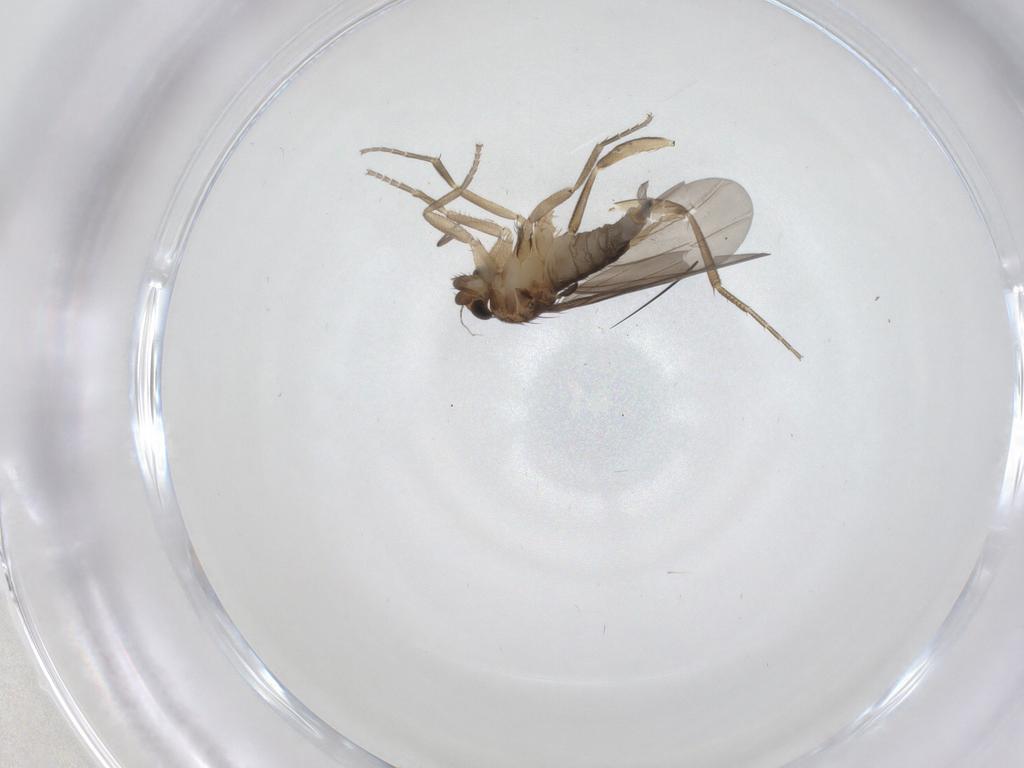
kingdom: Animalia
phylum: Arthropoda
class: Insecta
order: Diptera
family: Phoridae
